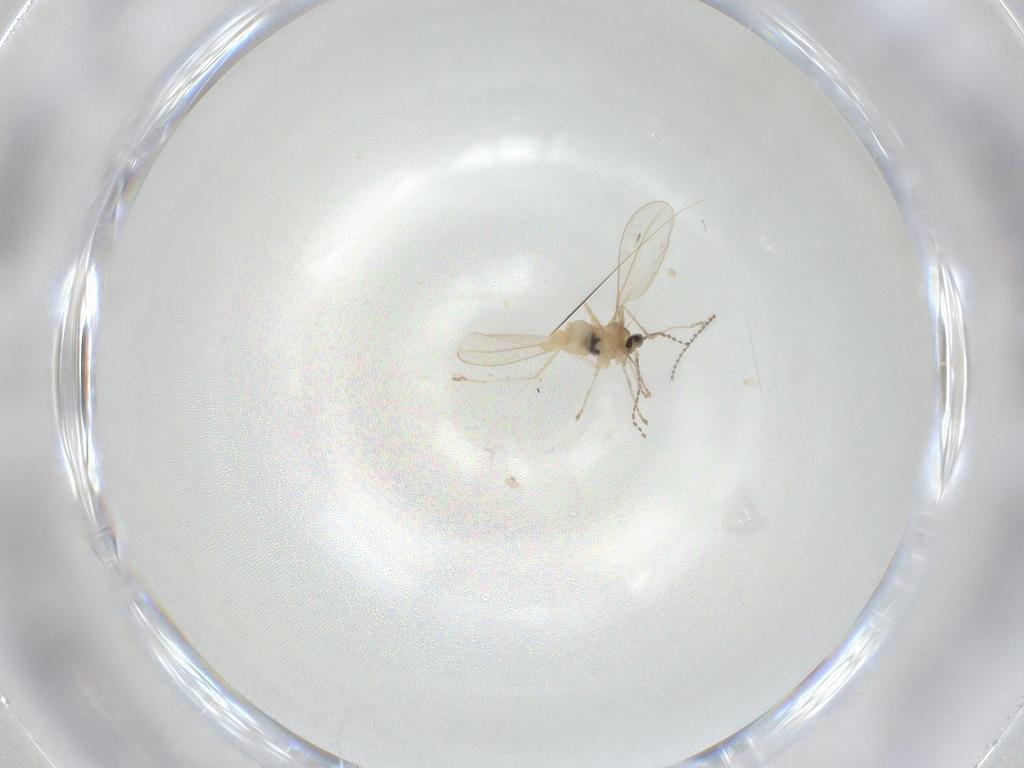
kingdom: Animalia
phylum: Arthropoda
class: Insecta
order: Diptera
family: Cecidomyiidae
